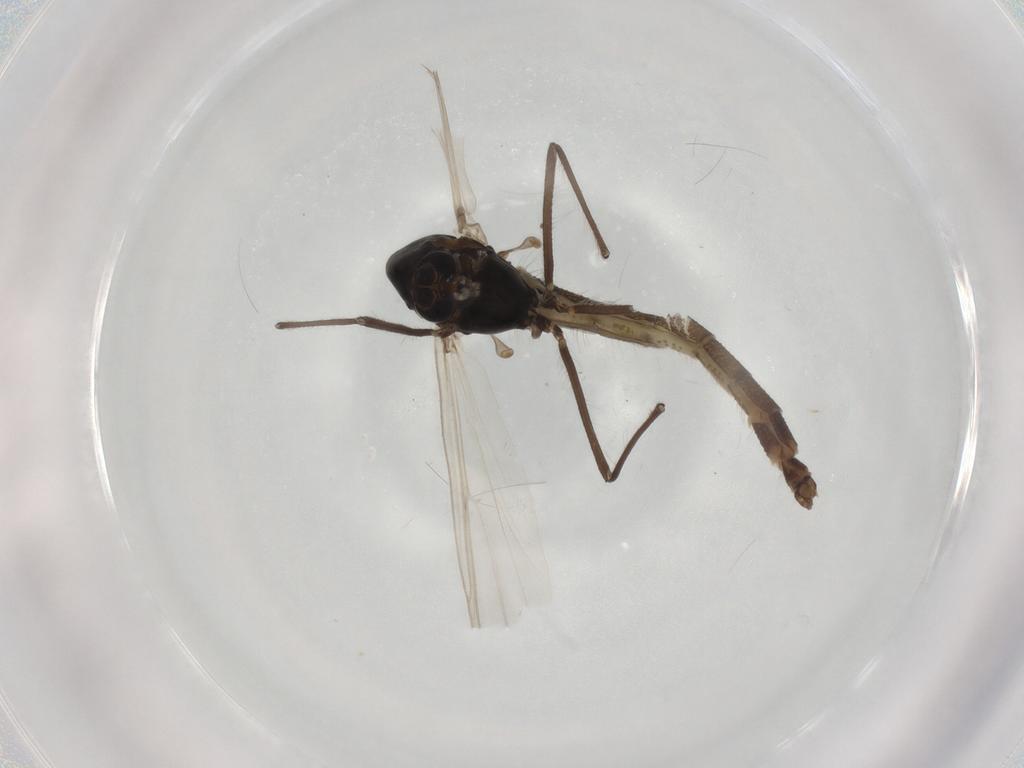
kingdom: Animalia
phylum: Arthropoda
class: Insecta
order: Diptera
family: Chironomidae
